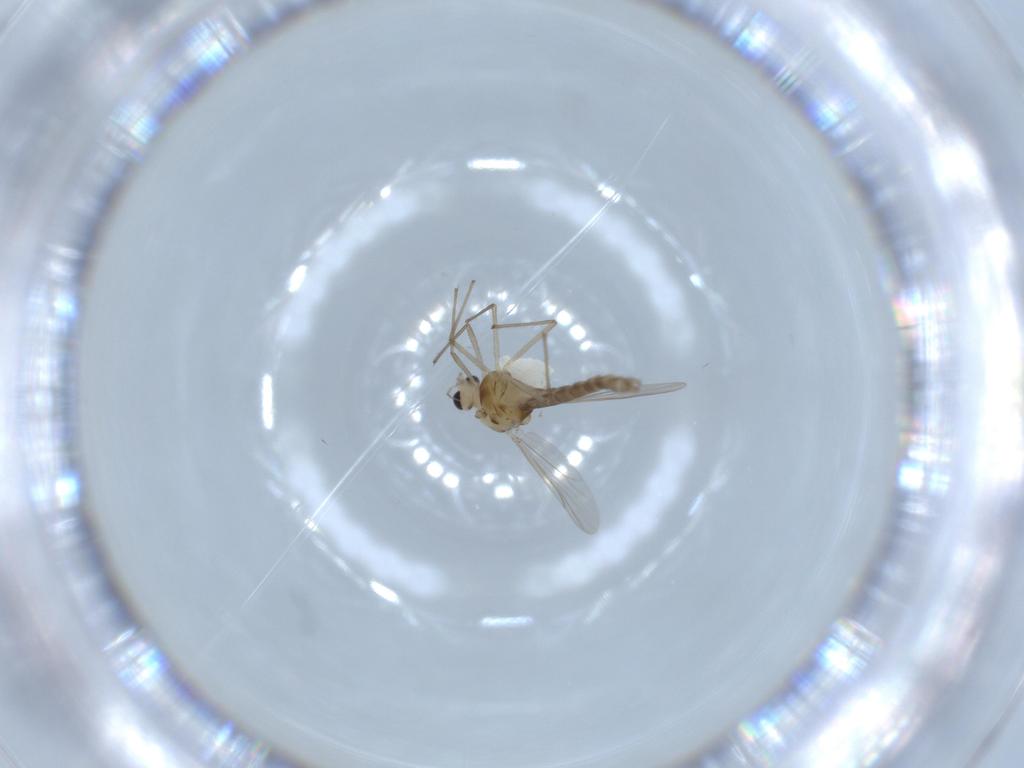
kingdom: Animalia
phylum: Arthropoda
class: Insecta
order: Diptera
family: Chironomidae
